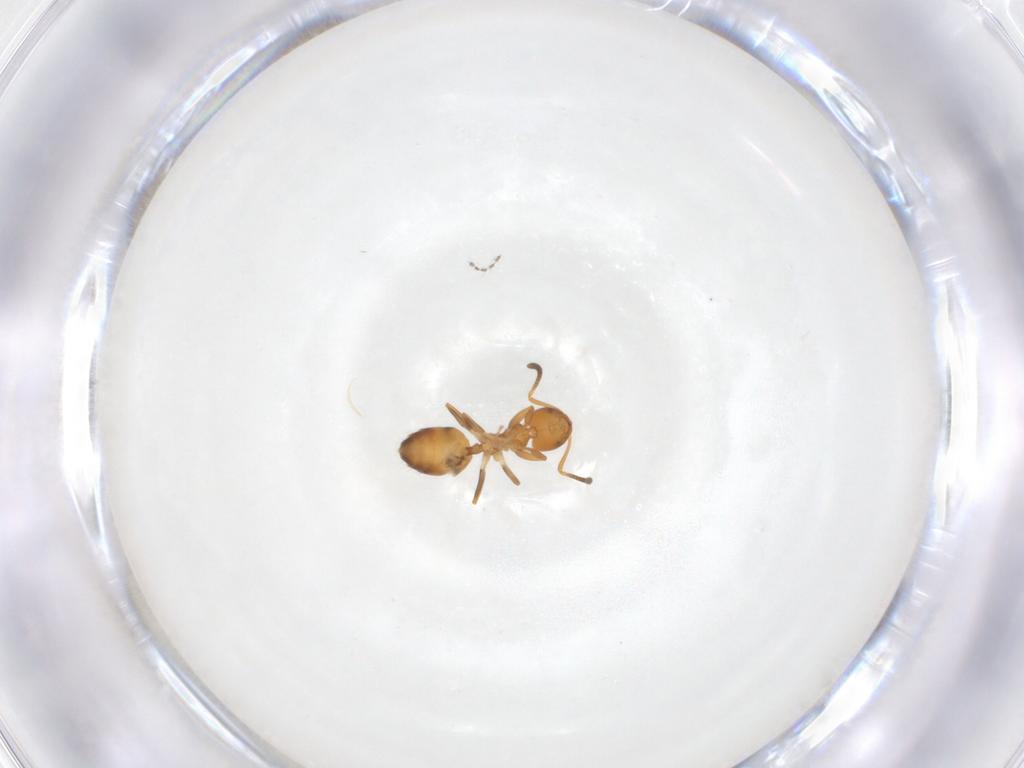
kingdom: Animalia
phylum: Arthropoda
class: Insecta
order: Hymenoptera
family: Formicidae
